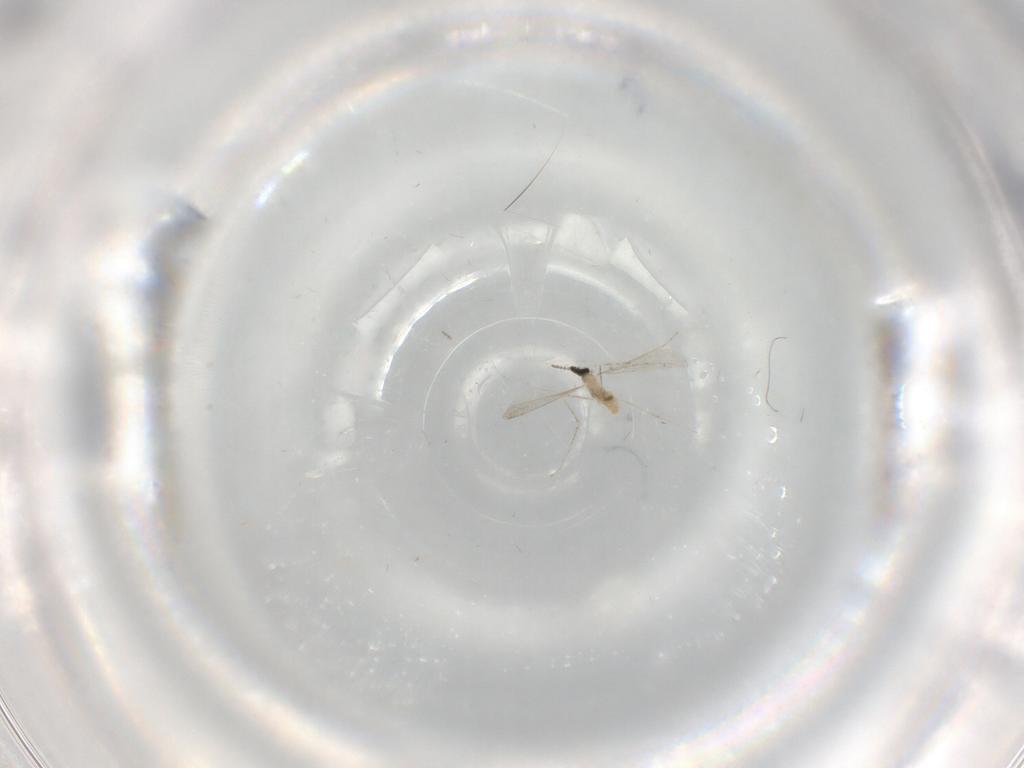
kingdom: Animalia
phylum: Arthropoda
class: Insecta
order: Diptera
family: Cecidomyiidae
